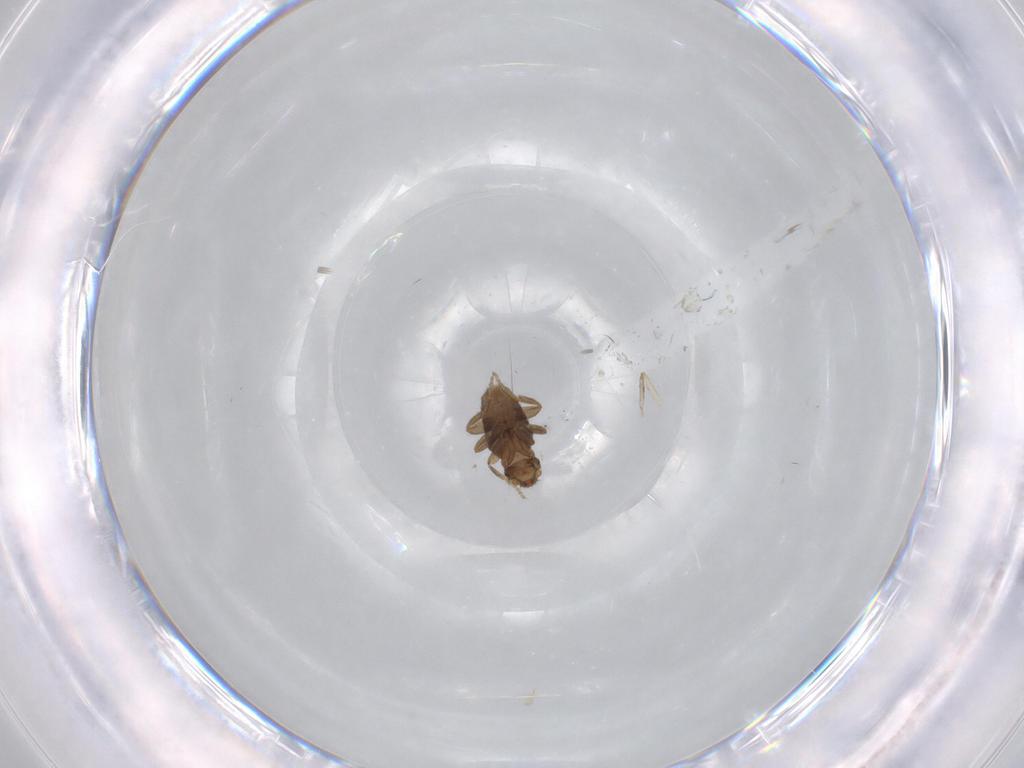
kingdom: Animalia
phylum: Arthropoda
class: Insecta
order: Diptera
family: Phoridae
